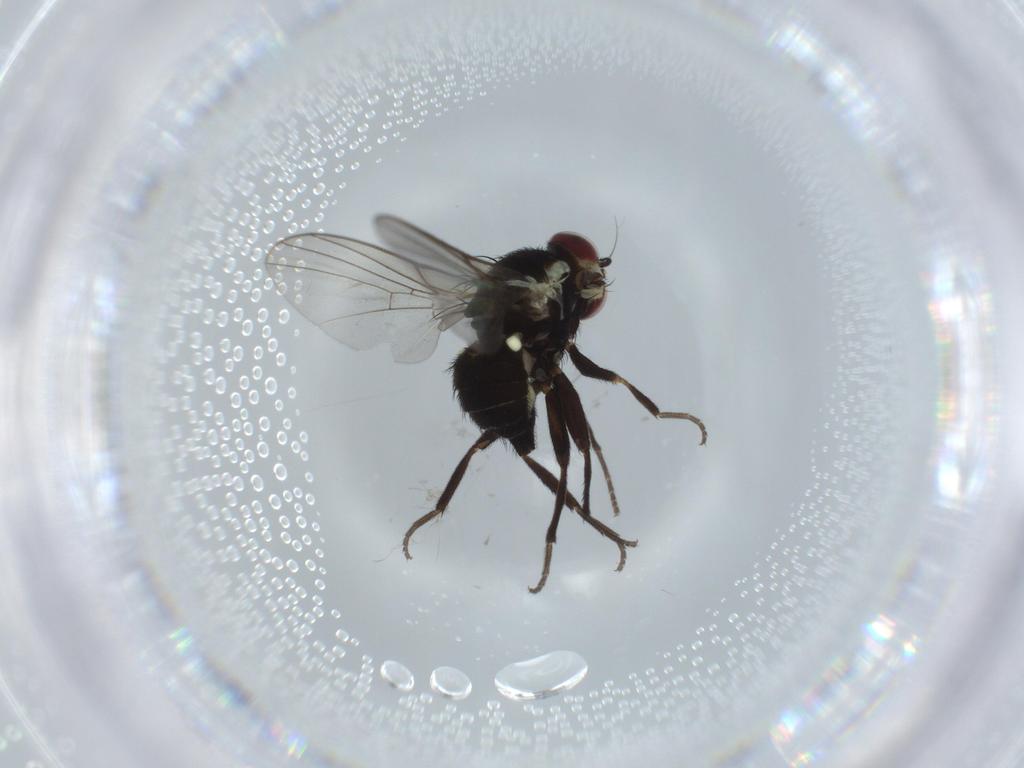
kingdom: Animalia
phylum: Arthropoda
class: Insecta
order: Diptera
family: Agromyzidae
